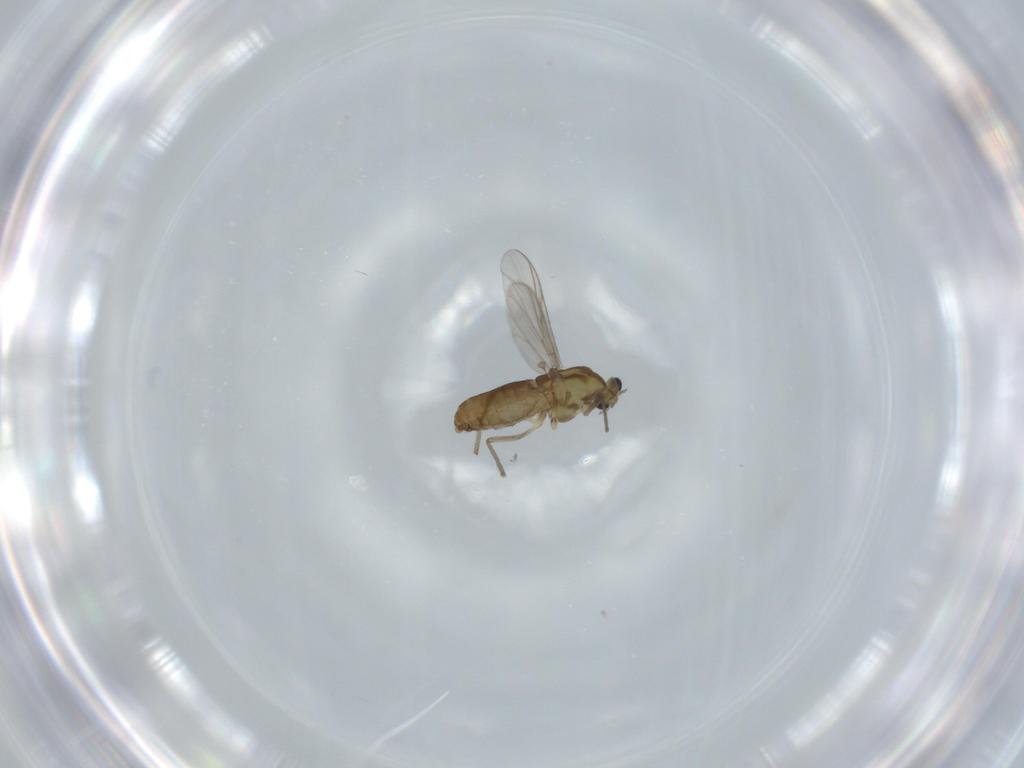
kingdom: Animalia
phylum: Arthropoda
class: Insecta
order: Diptera
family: Chironomidae
